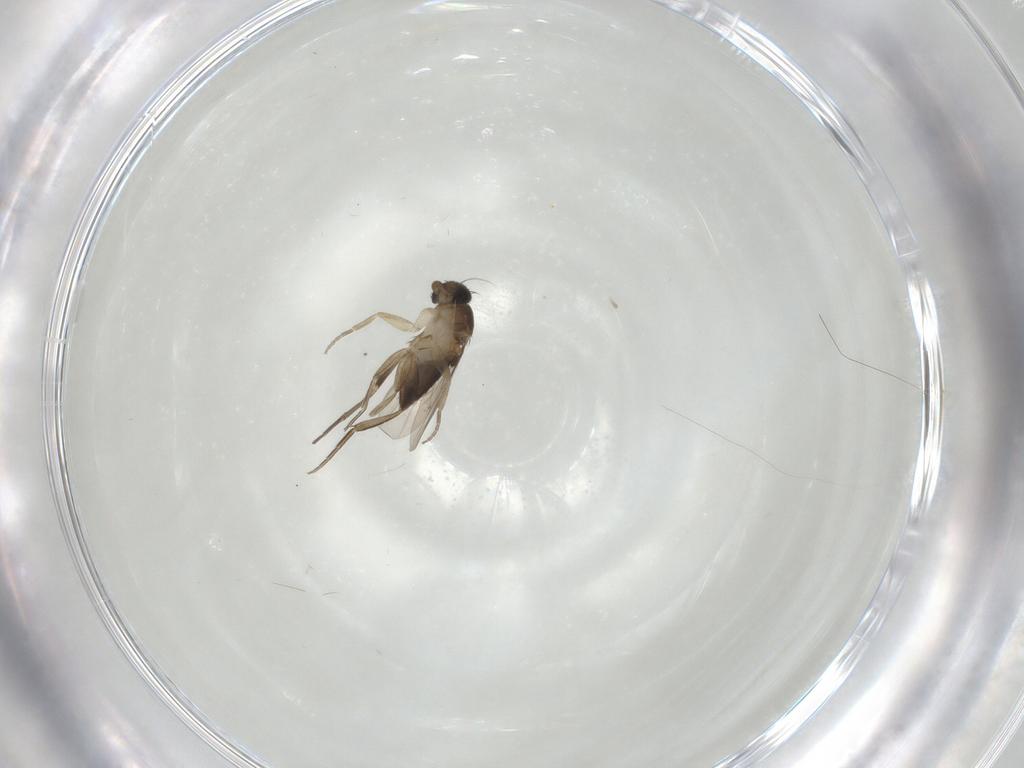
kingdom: Animalia
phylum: Arthropoda
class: Insecta
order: Diptera
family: Phoridae
